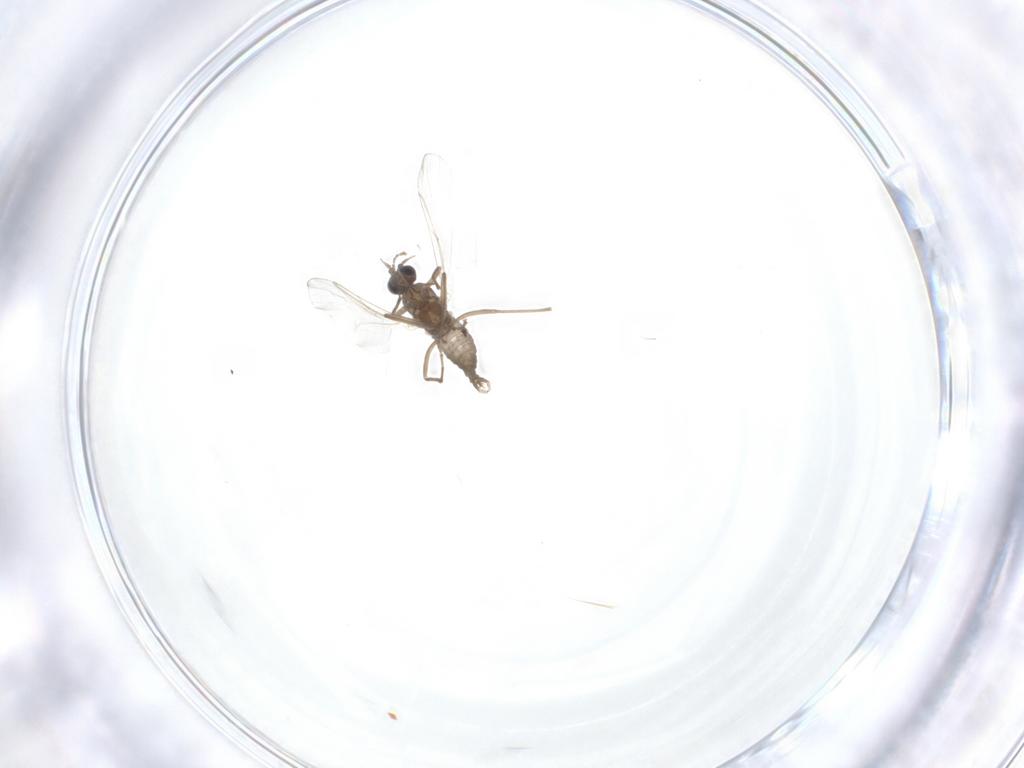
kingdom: Animalia
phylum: Arthropoda
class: Insecta
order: Diptera
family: Cecidomyiidae
